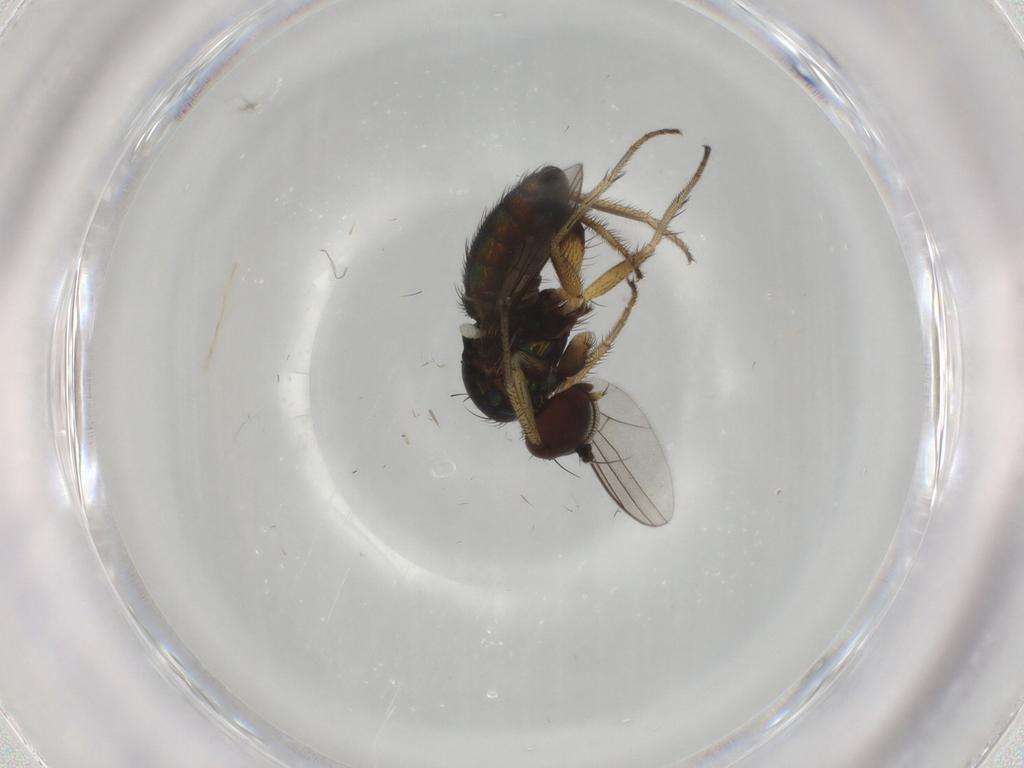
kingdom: Animalia
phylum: Arthropoda
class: Insecta
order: Diptera
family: Dolichopodidae
